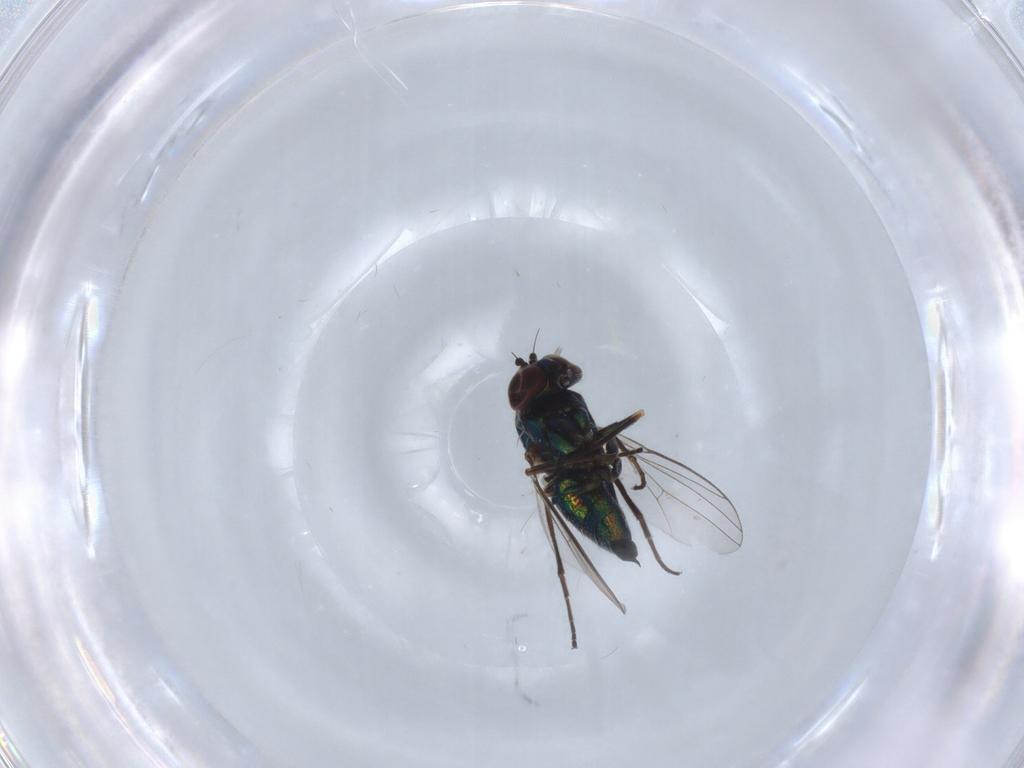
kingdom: Animalia
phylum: Arthropoda
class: Insecta
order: Diptera
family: Dolichopodidae
